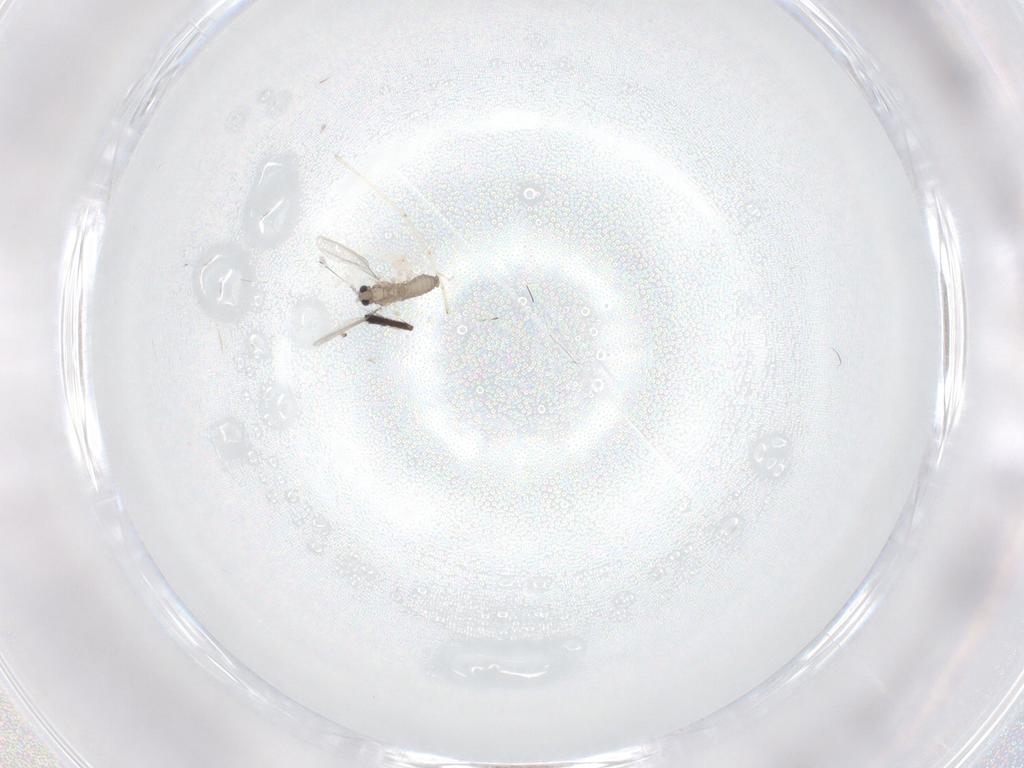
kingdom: Animalia
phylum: Arthropoda
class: Insecta
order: Diptera
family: Cecidomyiidae
